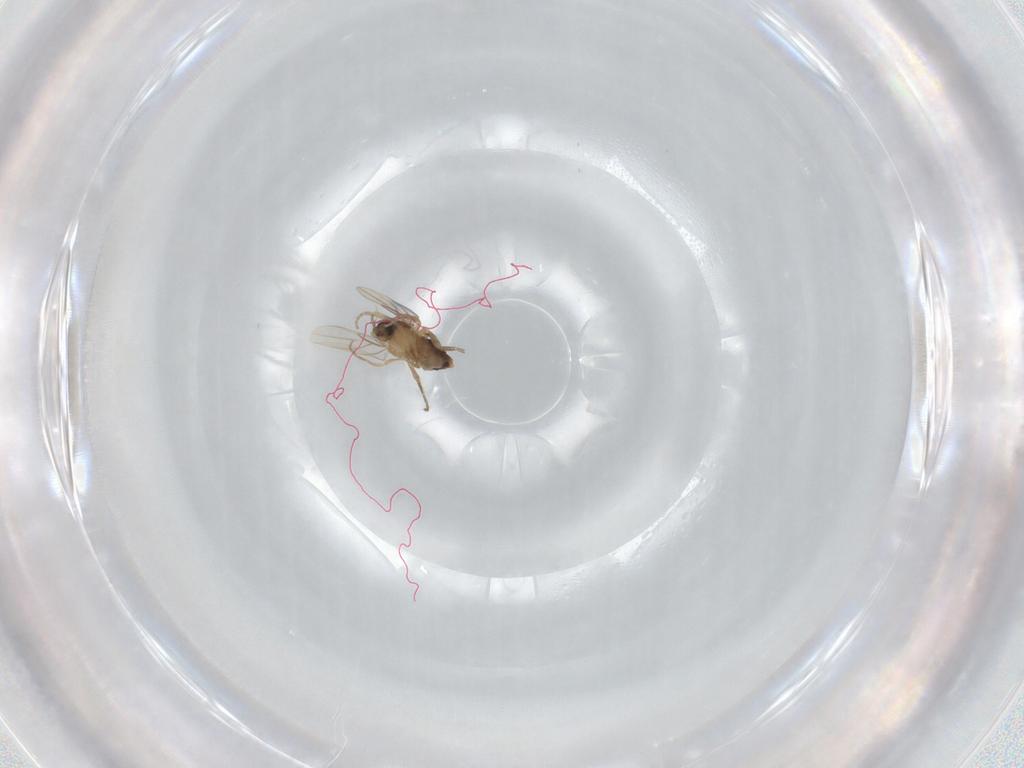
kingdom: Animalia
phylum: Arthropoda
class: Insecta
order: Diptera
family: Phoridae
